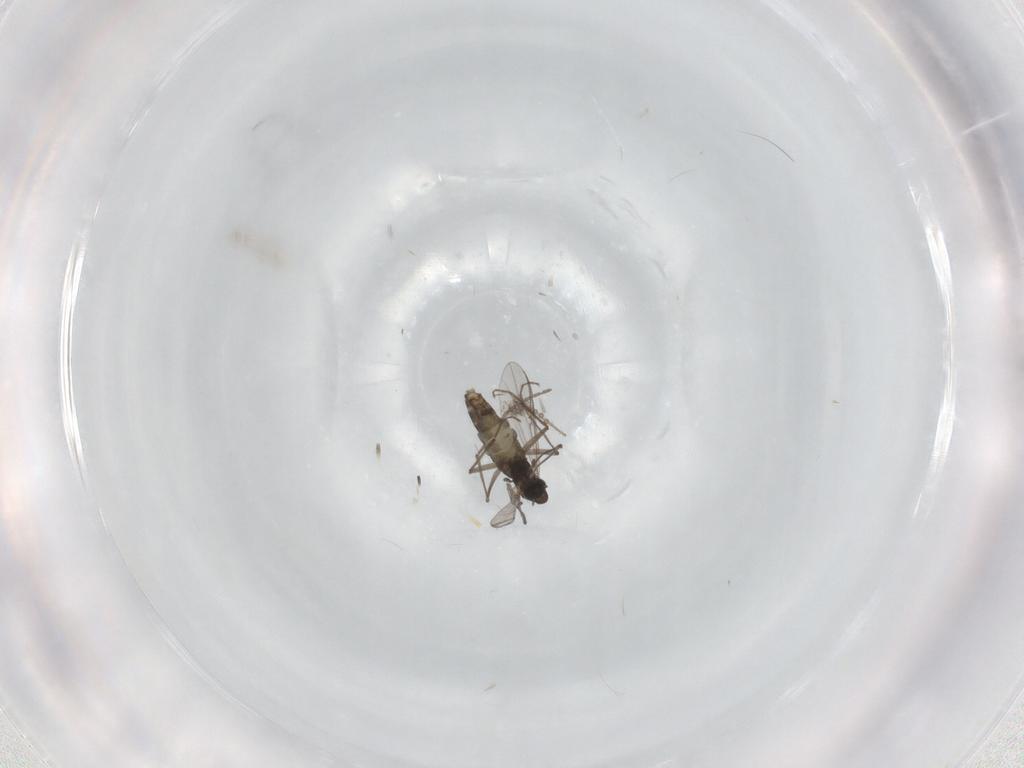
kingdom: Animalia
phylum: Arthropoda
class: Insecta
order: Diptera
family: Chironomidae
